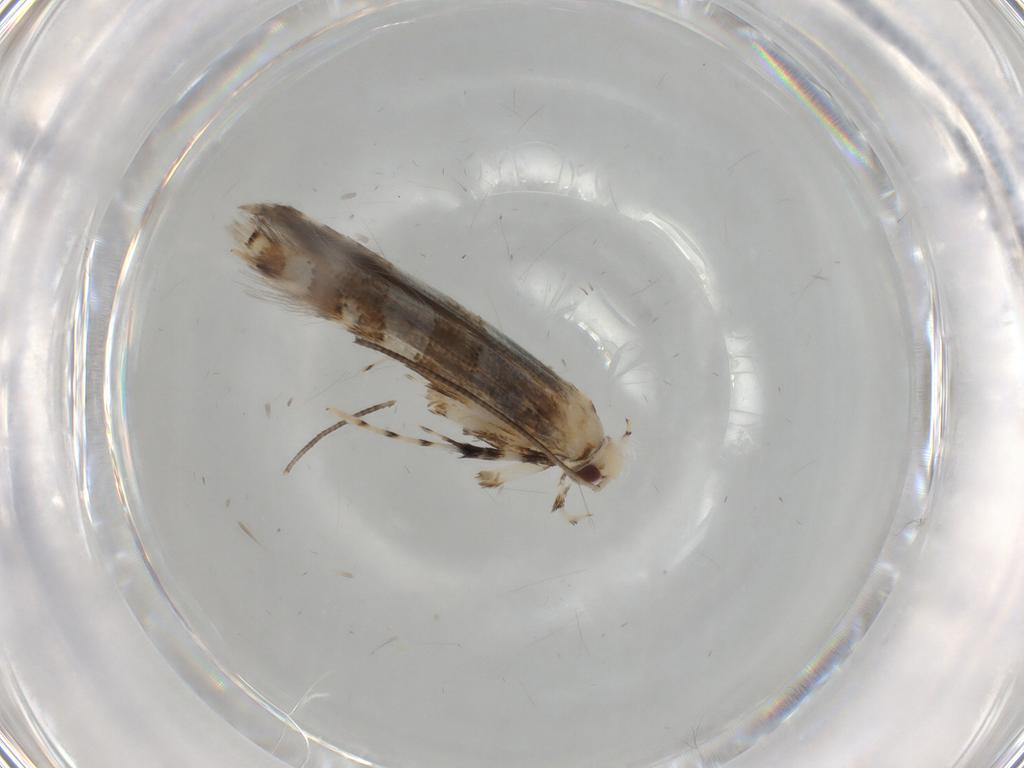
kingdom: Animalia
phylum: Arthropoda
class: Insecta
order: Lepidoptera
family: Gracillariidae
